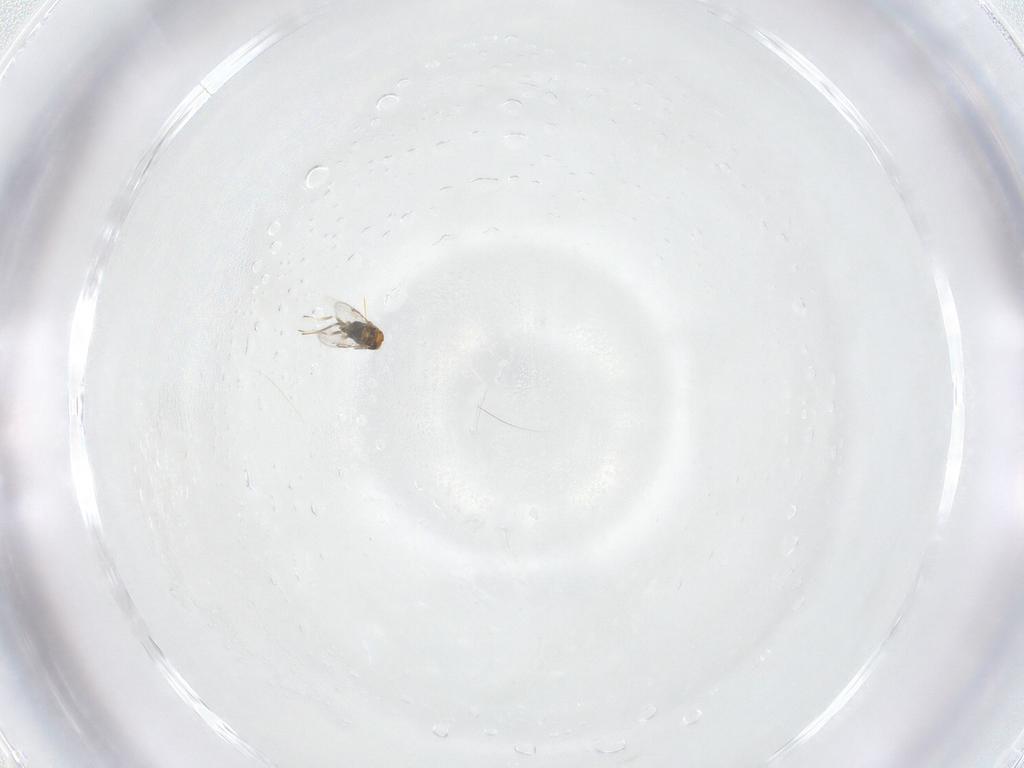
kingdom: Animalia
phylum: Arthropoda
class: Insecta
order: Hymenoptera
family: Aphelinidae
